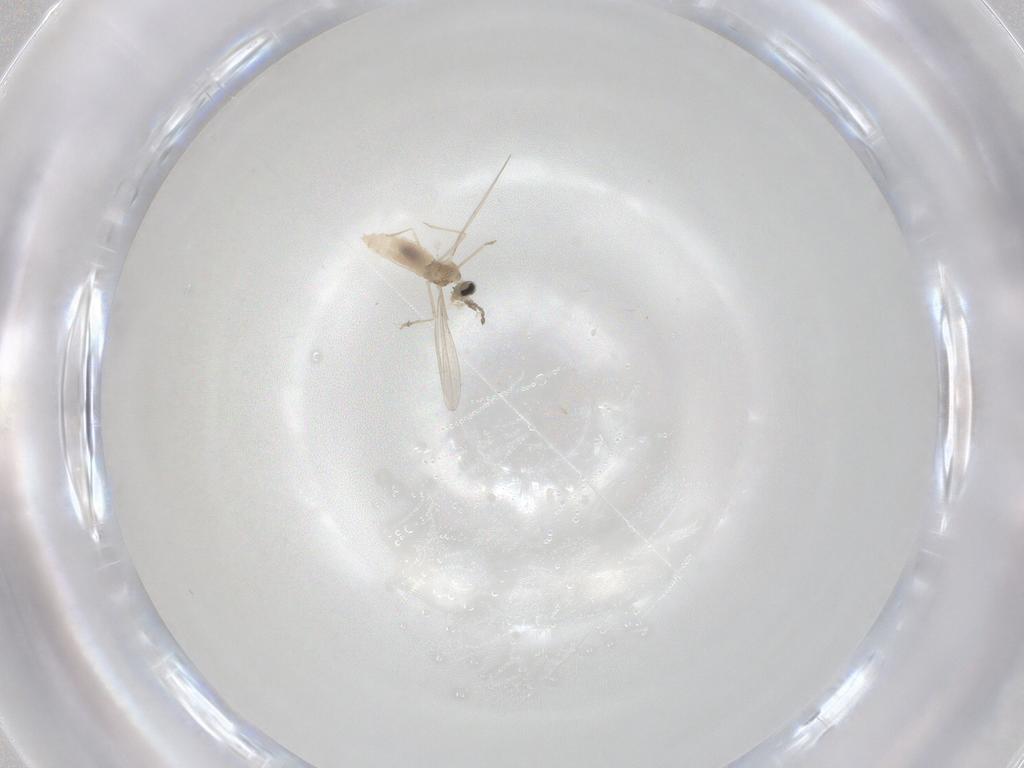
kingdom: Animalia
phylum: Arthropoda
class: Insecta
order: Diptera
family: Cecidomyiidae
